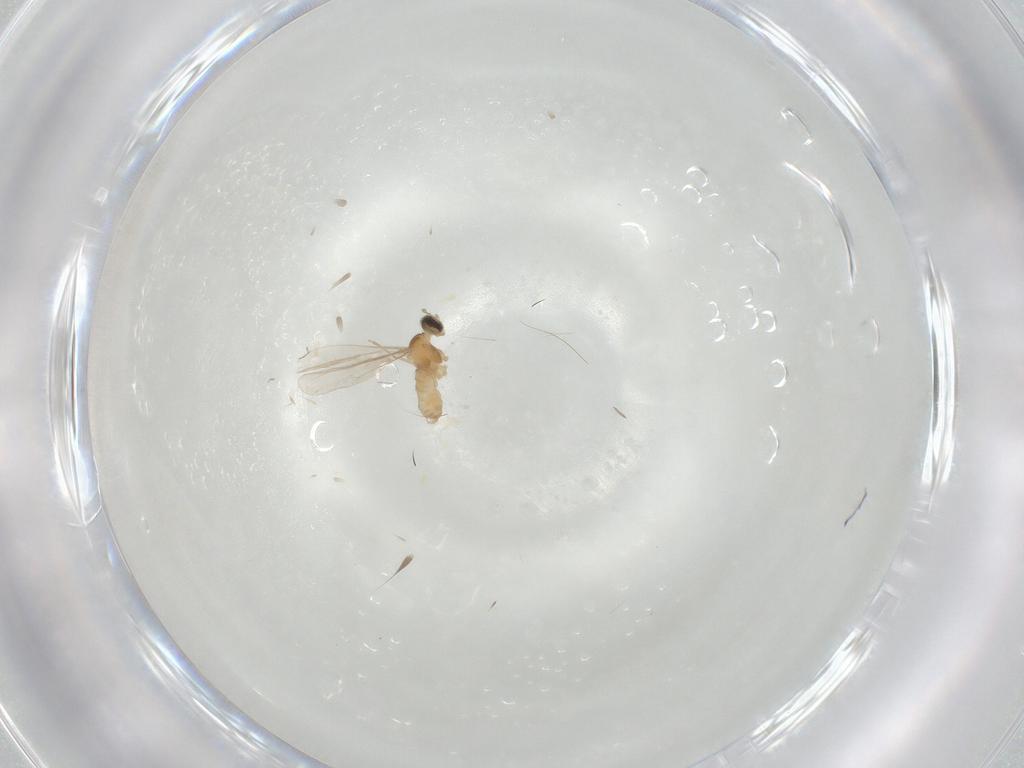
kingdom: Animalia
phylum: Arthropoda
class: Insecta
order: Diptera
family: Cecidomyiidae
